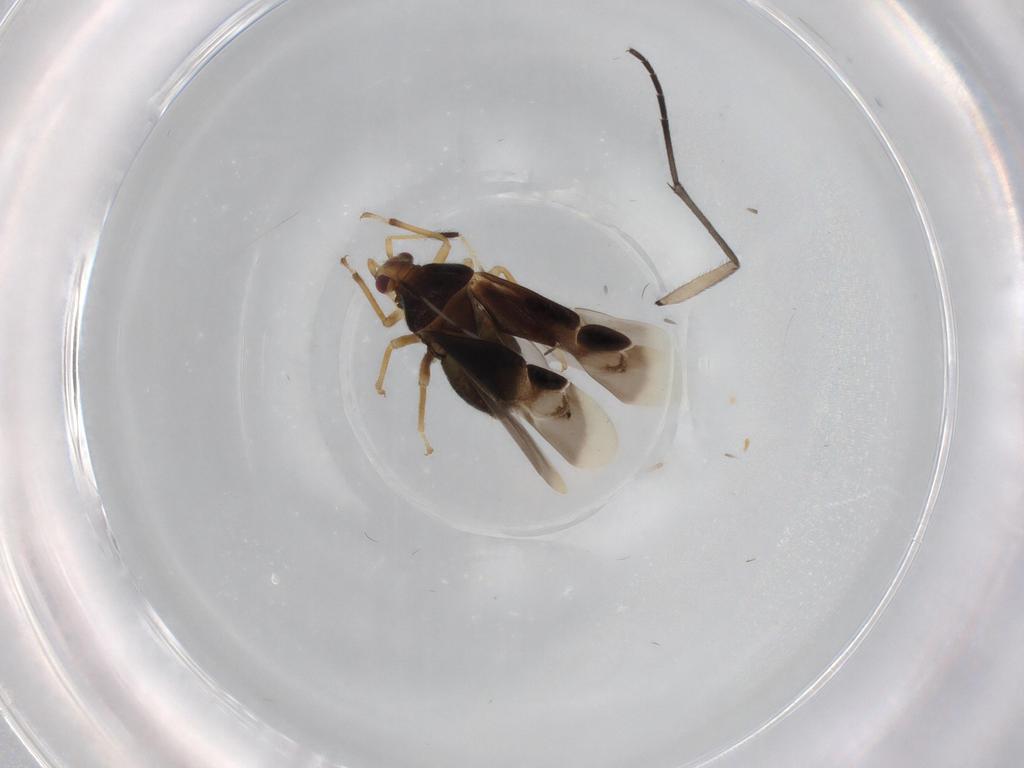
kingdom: Animalia
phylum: Arthropoda
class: Insecta
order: Hemiptera
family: Miridae
